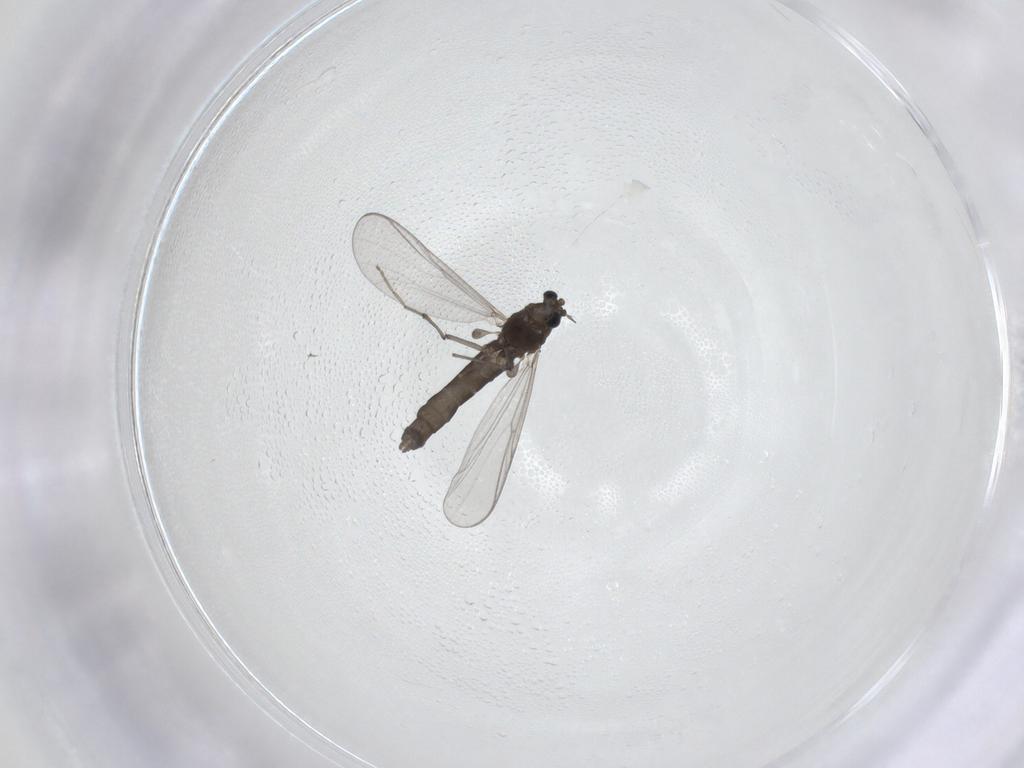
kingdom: Animalia
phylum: Arthropoda
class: Insecta
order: Diptera
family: Chironomidae
